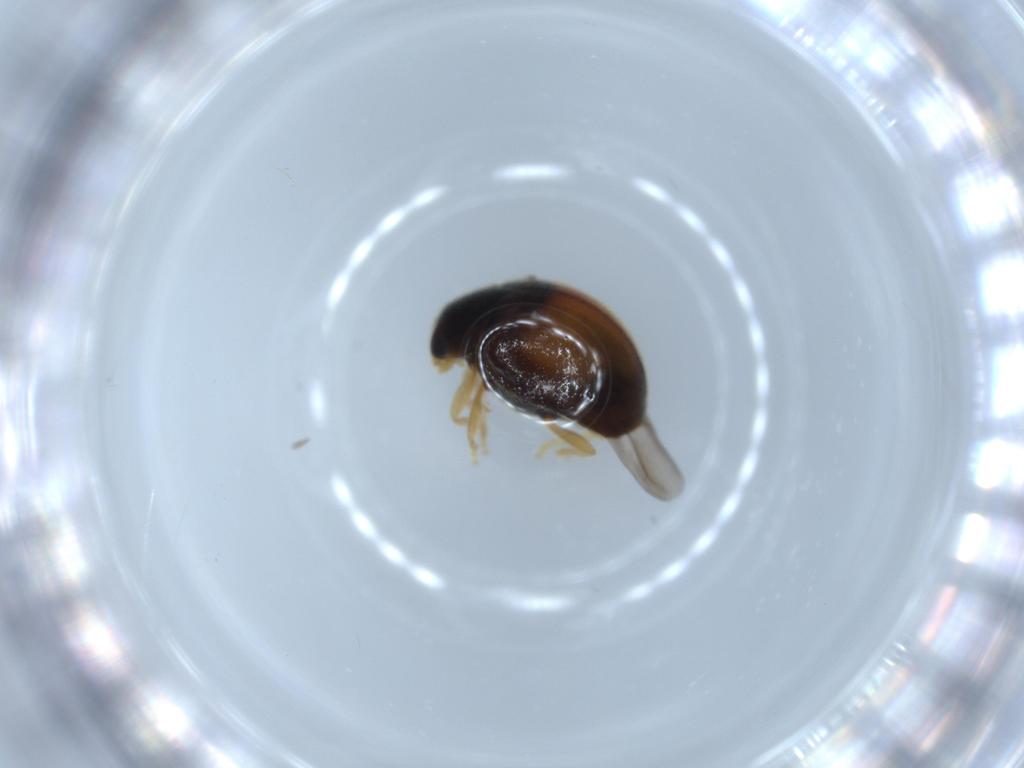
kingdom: Animalia
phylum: Arthropoda
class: Insecta
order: Coleoptera
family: Coccinellidae
